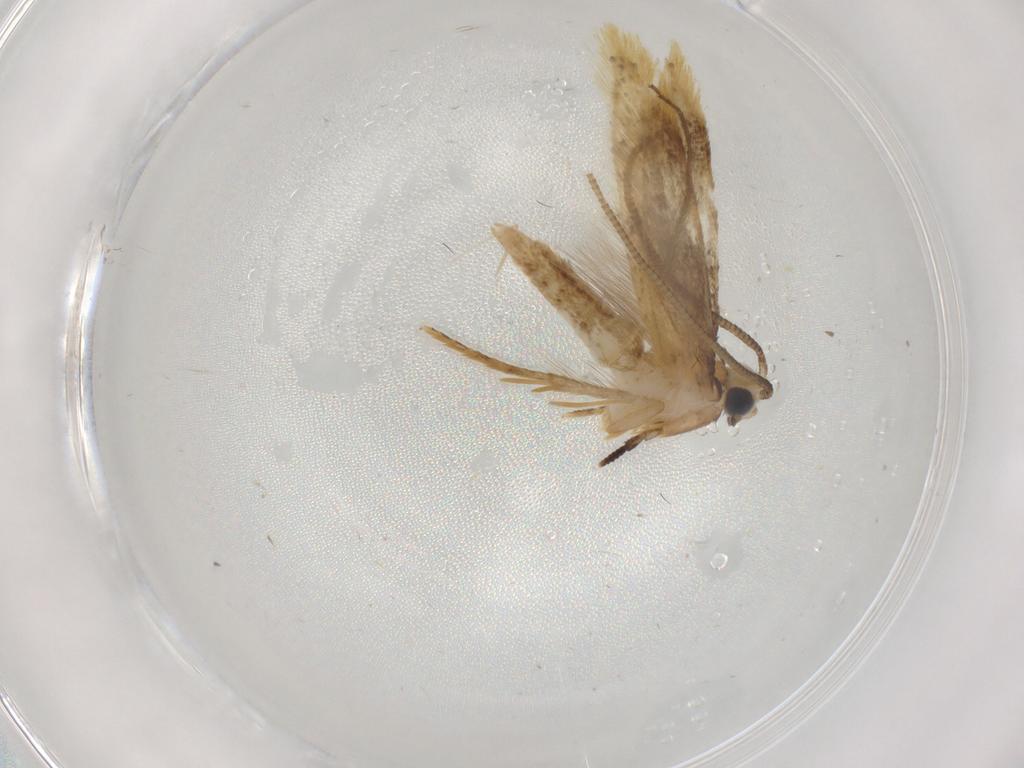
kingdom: Animalia
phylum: Arthropoda
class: Insecta
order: Lepidoptera
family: Tineidae
